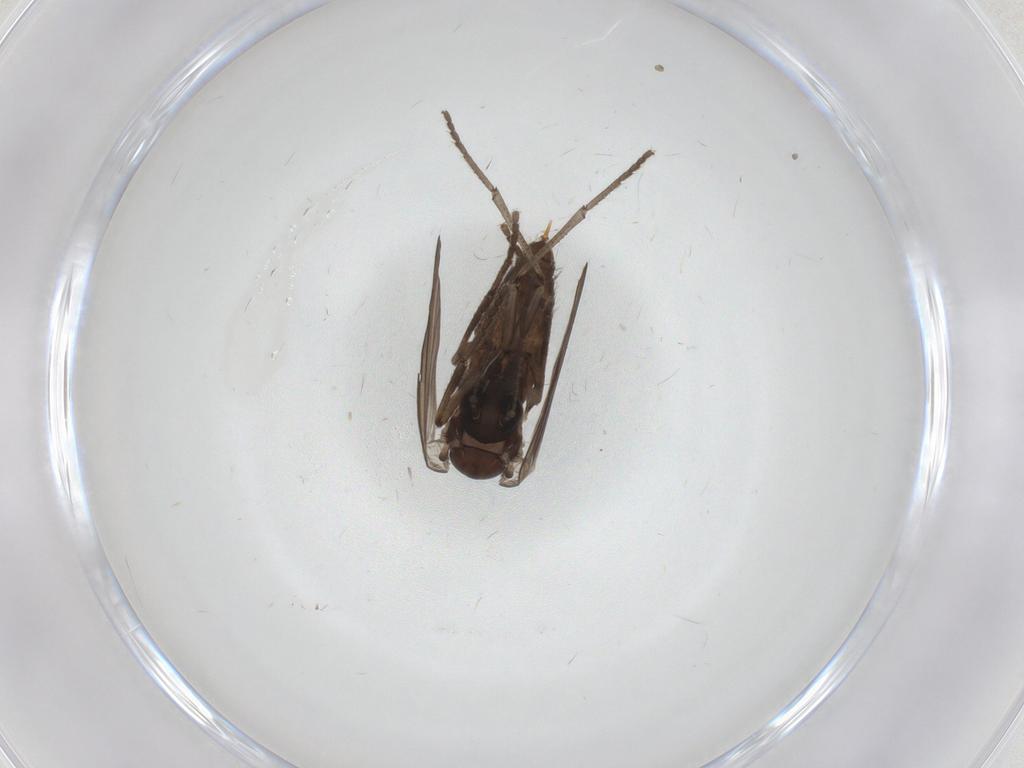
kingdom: Animalia
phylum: Arthropoda
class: Insecta
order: Diptera
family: Psychodidae
